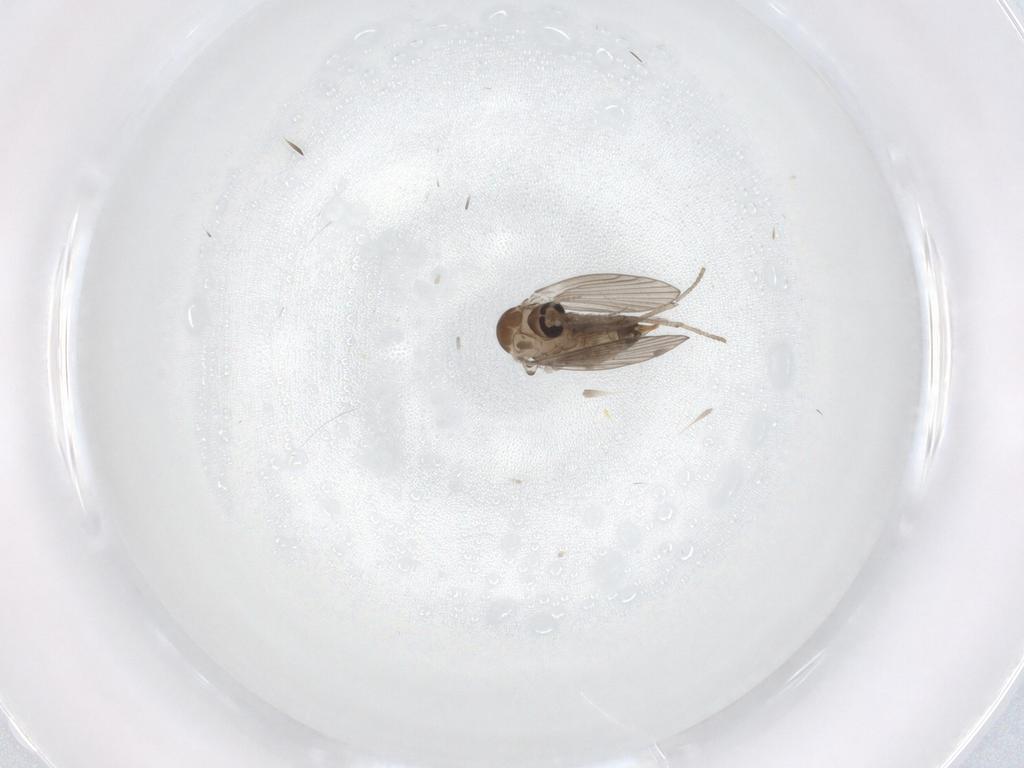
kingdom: Animalia
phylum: Arthropoda
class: Insecta
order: Diptera
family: Psychodidae
